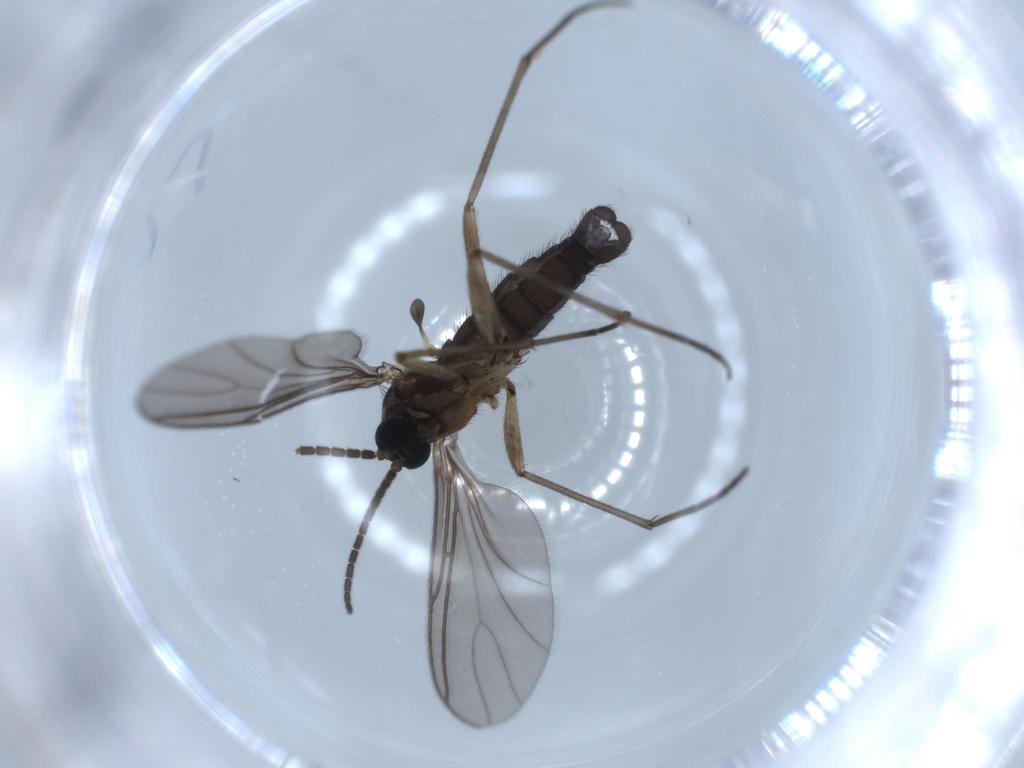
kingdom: Animalia
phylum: Arthropoda
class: Insecta
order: Diptera
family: Sciaridae
